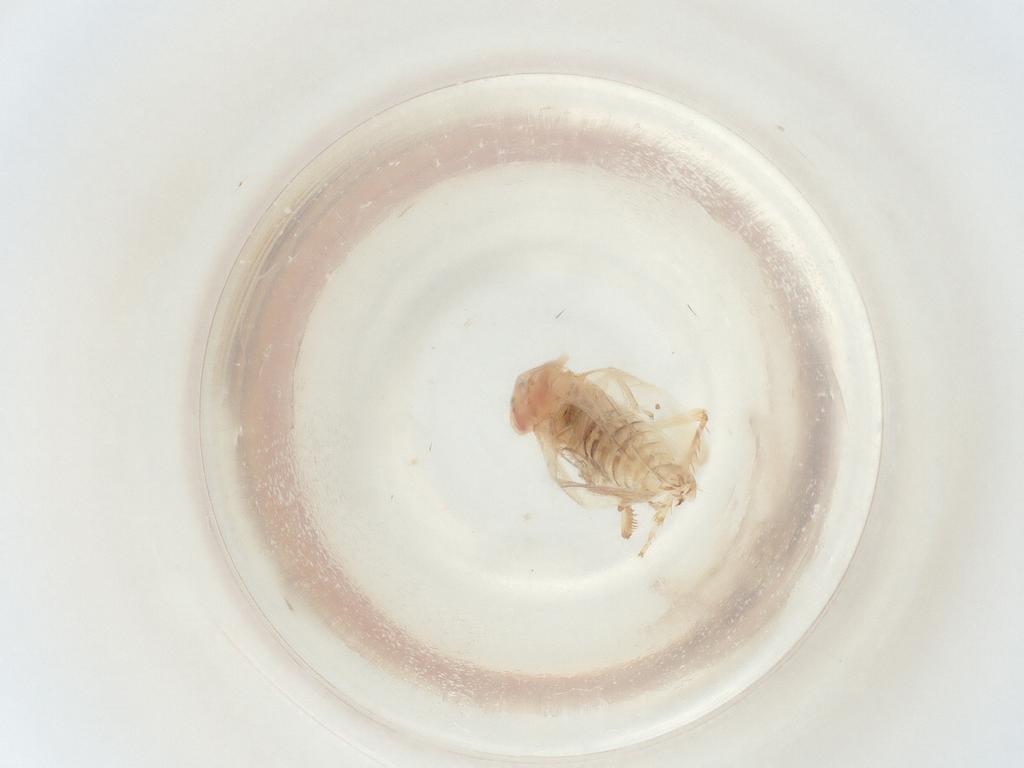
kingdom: Animalia
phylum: Arthropoda
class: Insecta
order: Hemiptera
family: Cicadellidae
